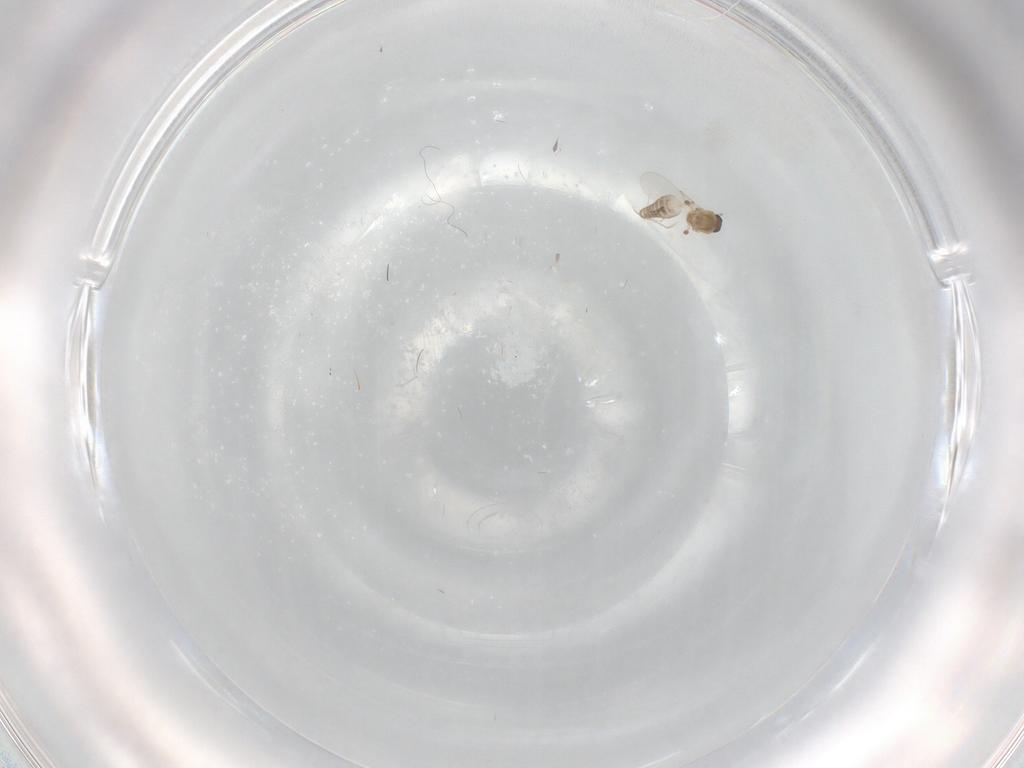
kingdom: Animalia
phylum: Arthropoda
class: Insecta
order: Diptera
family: Ceratopogonidae
